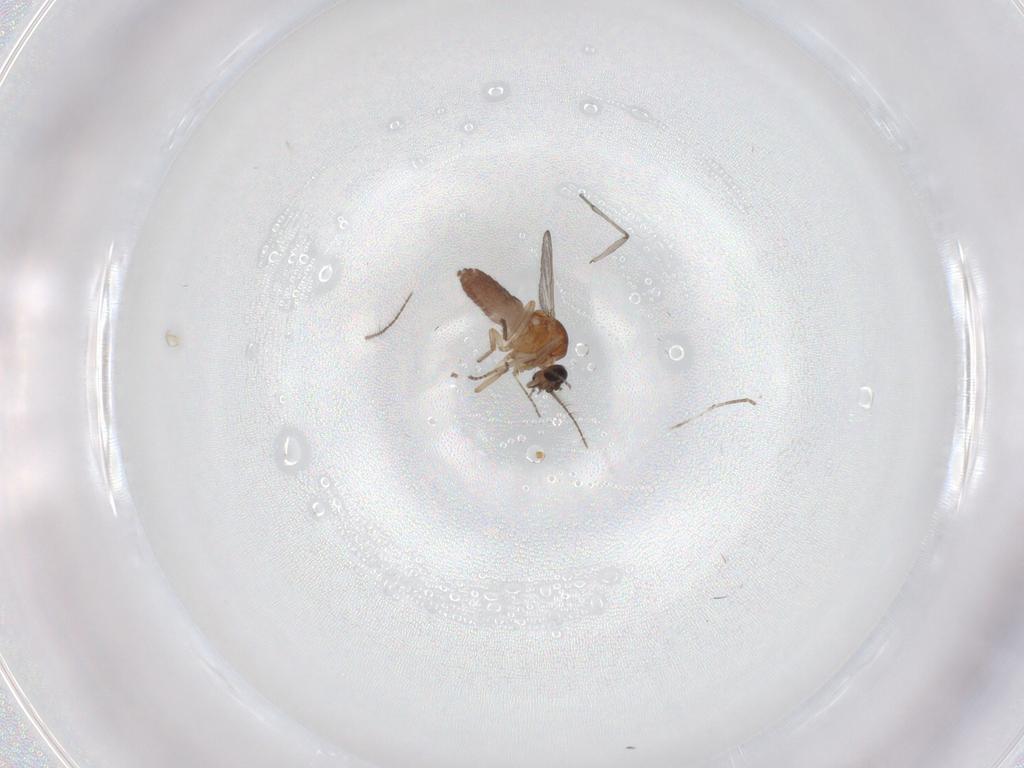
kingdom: Animalia
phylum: Arthropoda
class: Insecta
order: Diptera
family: Ceratopogonidae
